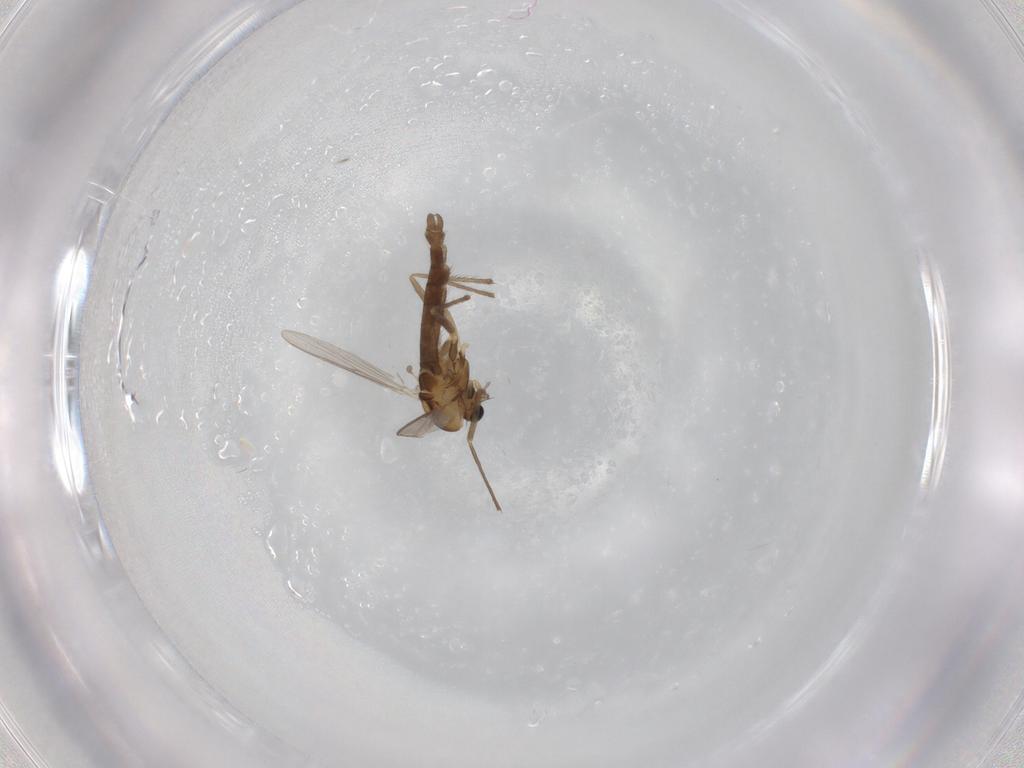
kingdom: Animalia
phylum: Arthropoda
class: Insecta
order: Diptera
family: Chironomidae
